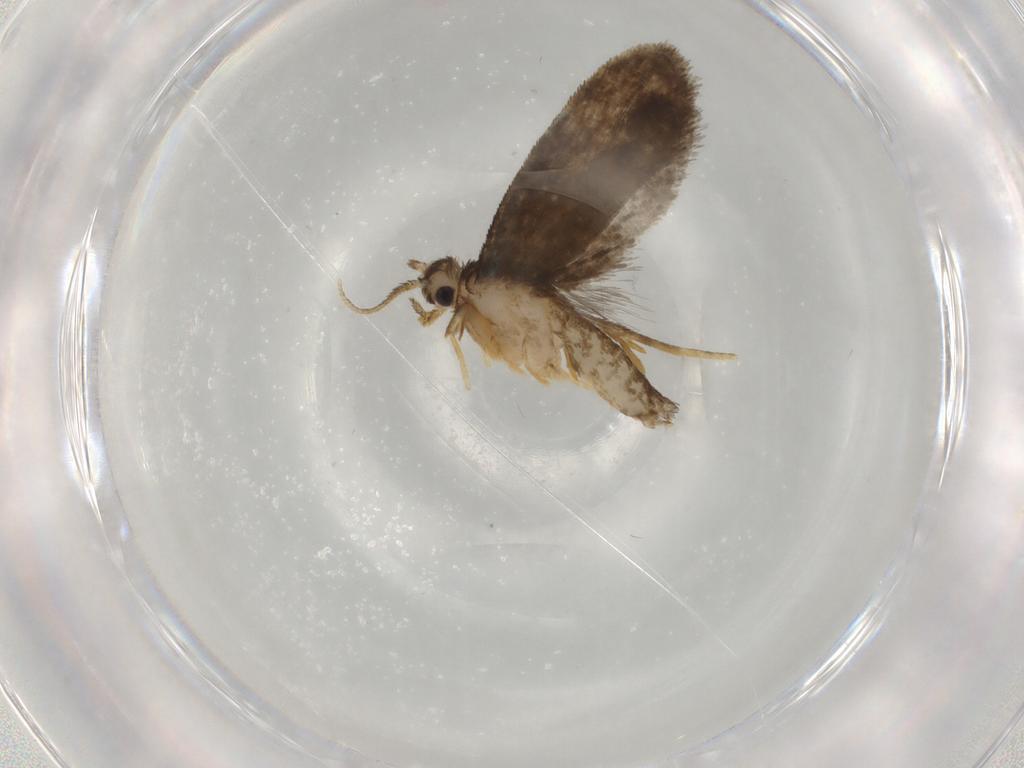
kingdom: Animalia
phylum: Arthropoda
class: Insecta
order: Lepidoptera
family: Psychidae
